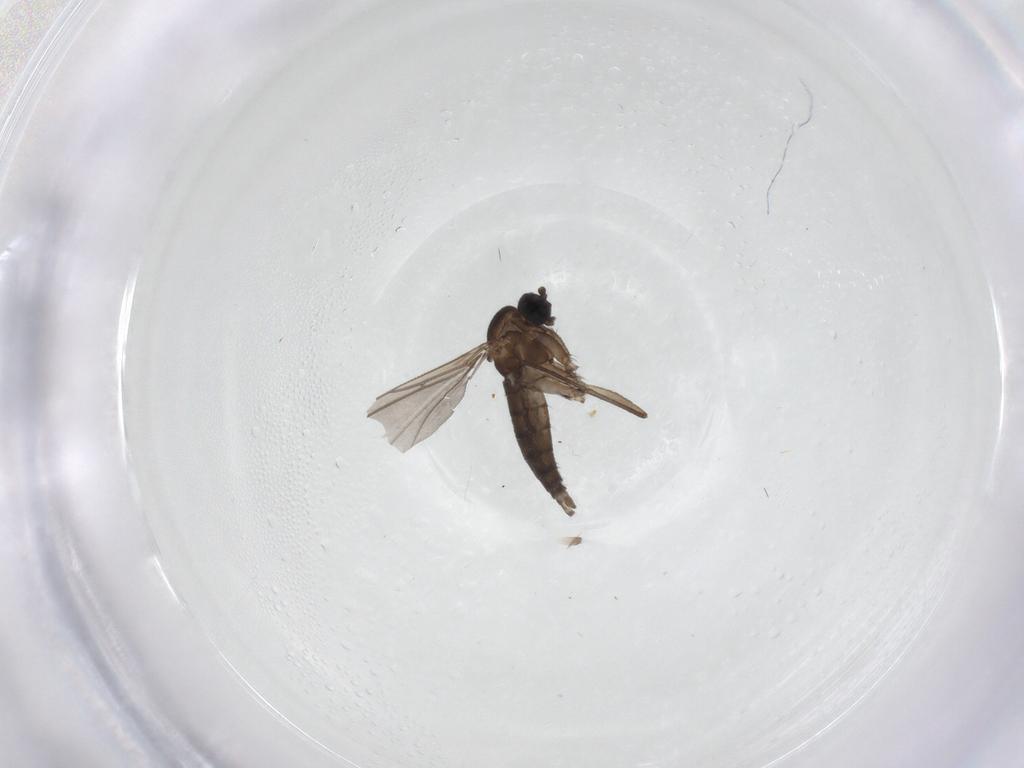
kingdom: Animalia
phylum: Arthropoda
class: Insecta
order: Diptera
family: Sciaridae
